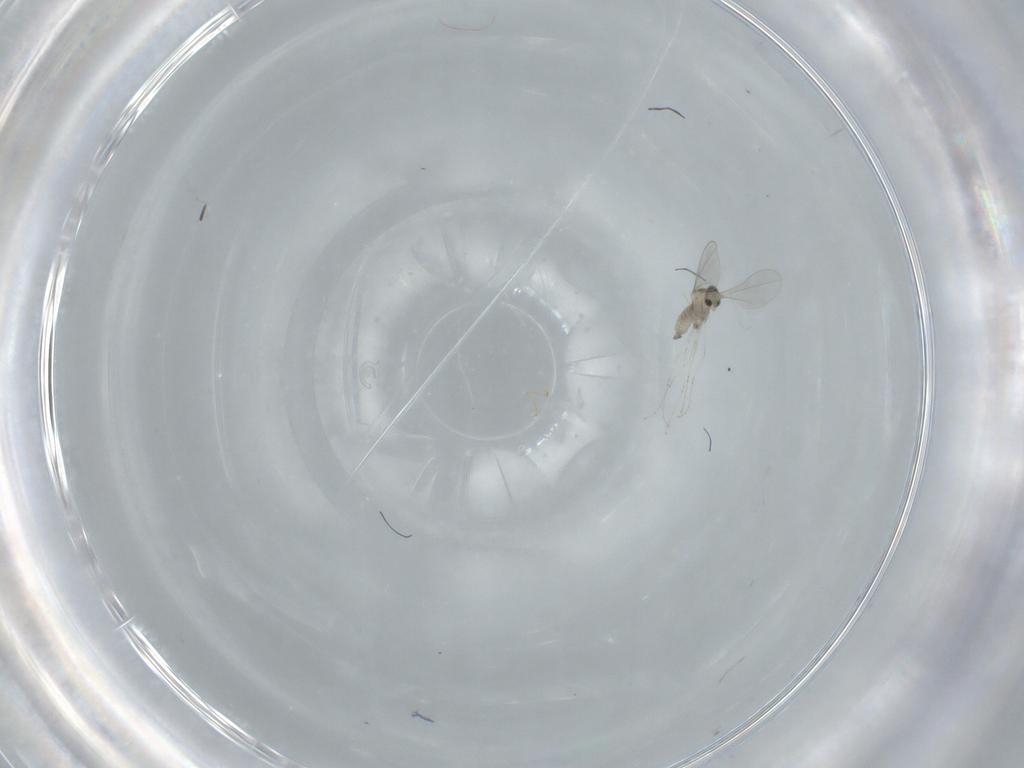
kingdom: Animalia
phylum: Arthropoda
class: Insecta
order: Diptera
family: Cecidomyiidae
